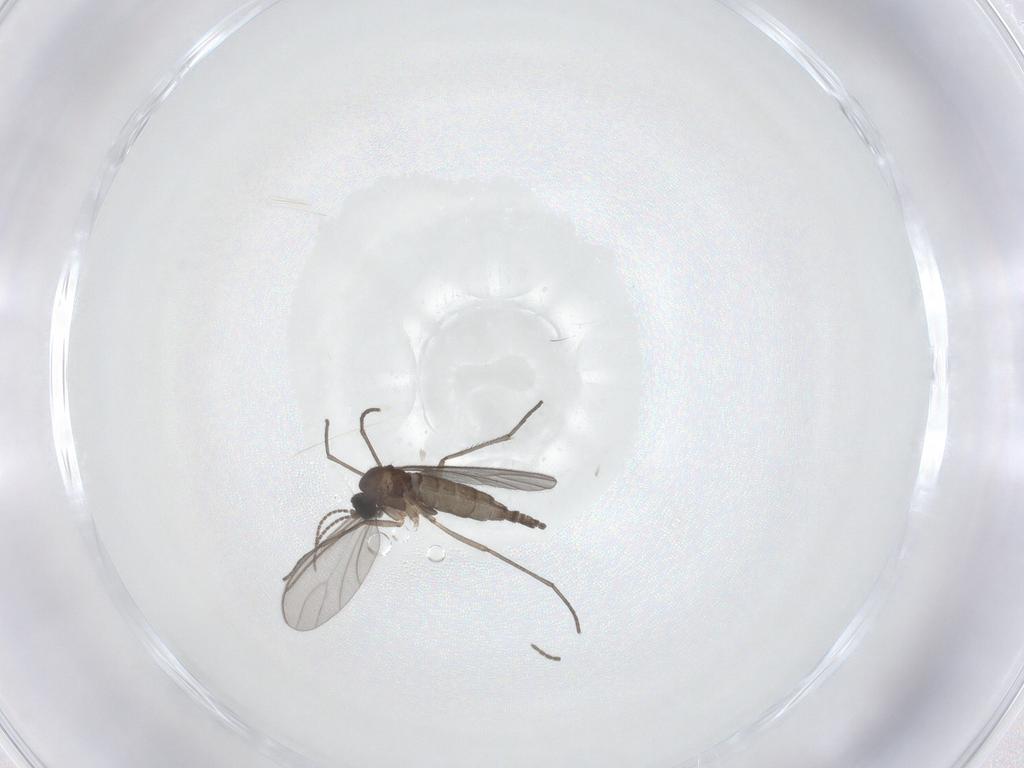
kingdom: Animalia
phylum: Arthropoda
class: Insecta
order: Diptera
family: Sciaridae
